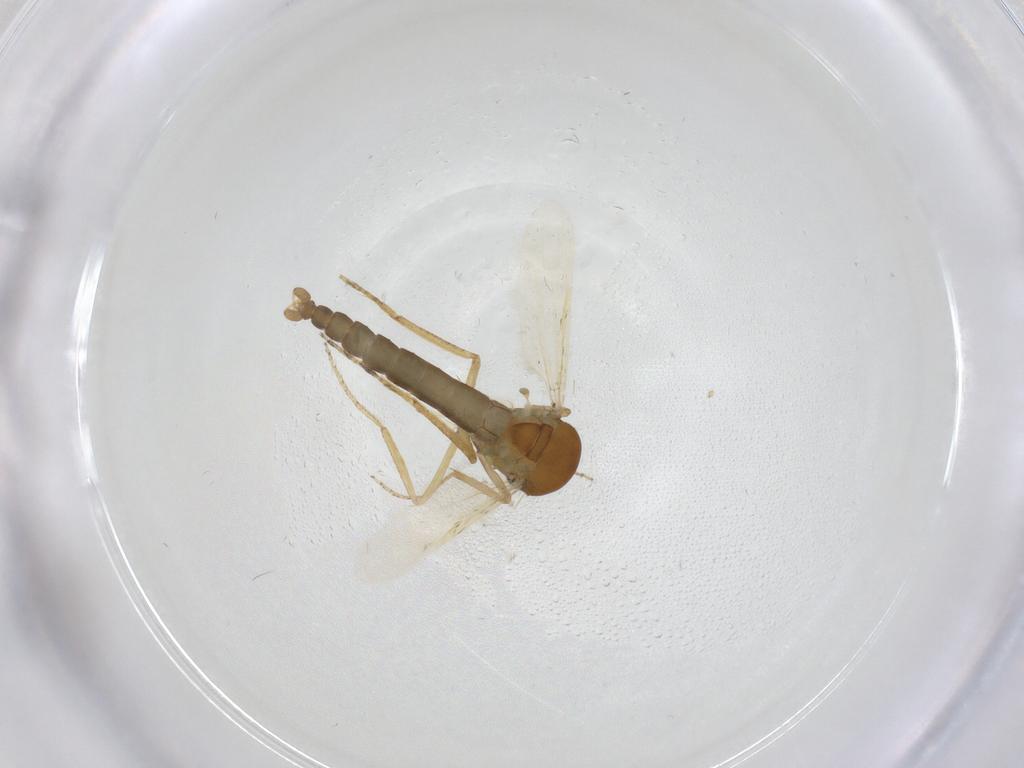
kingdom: Animalia
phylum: Arthropoda
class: Insecta
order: Diptera
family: Ceratopogonidae
